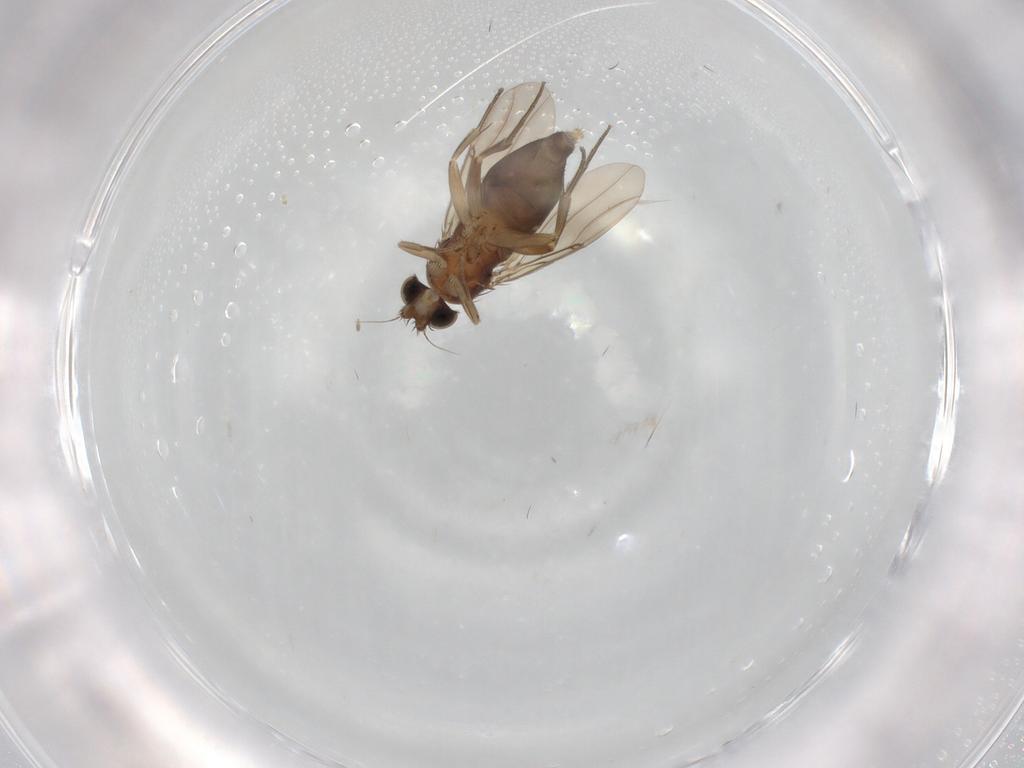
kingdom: Animalia
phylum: Arthropoda
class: Insecta
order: Diptera
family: Phoridae
